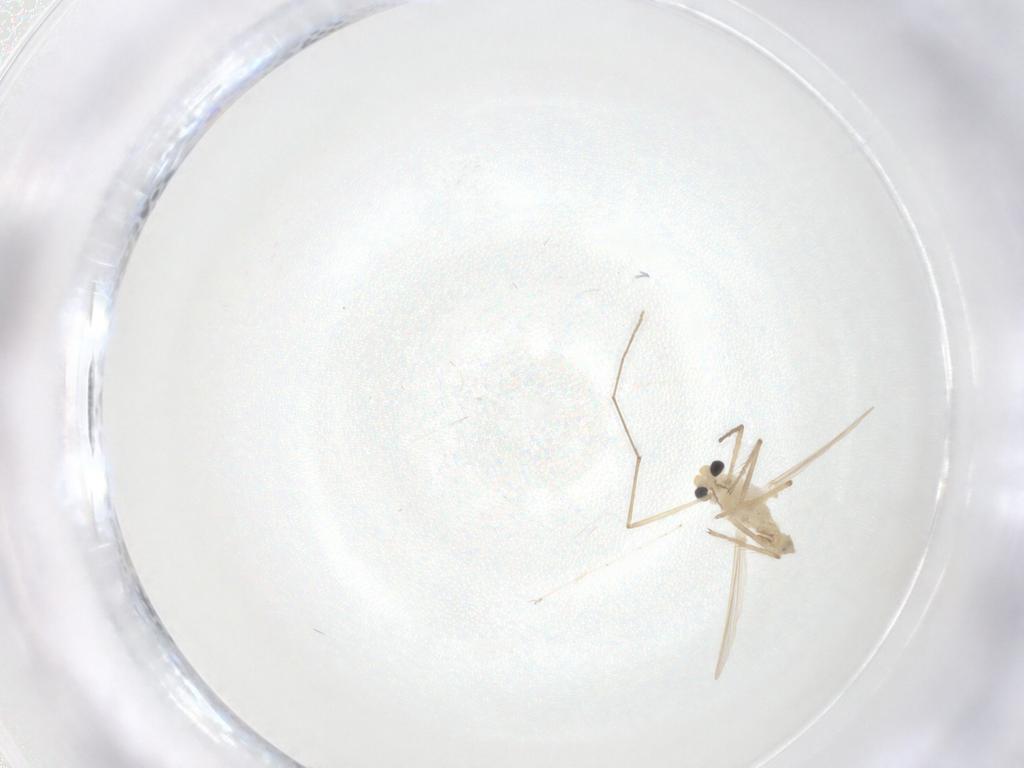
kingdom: Animalia
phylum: Arthropoda
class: Insecta
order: Diptera
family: Chironomidae
